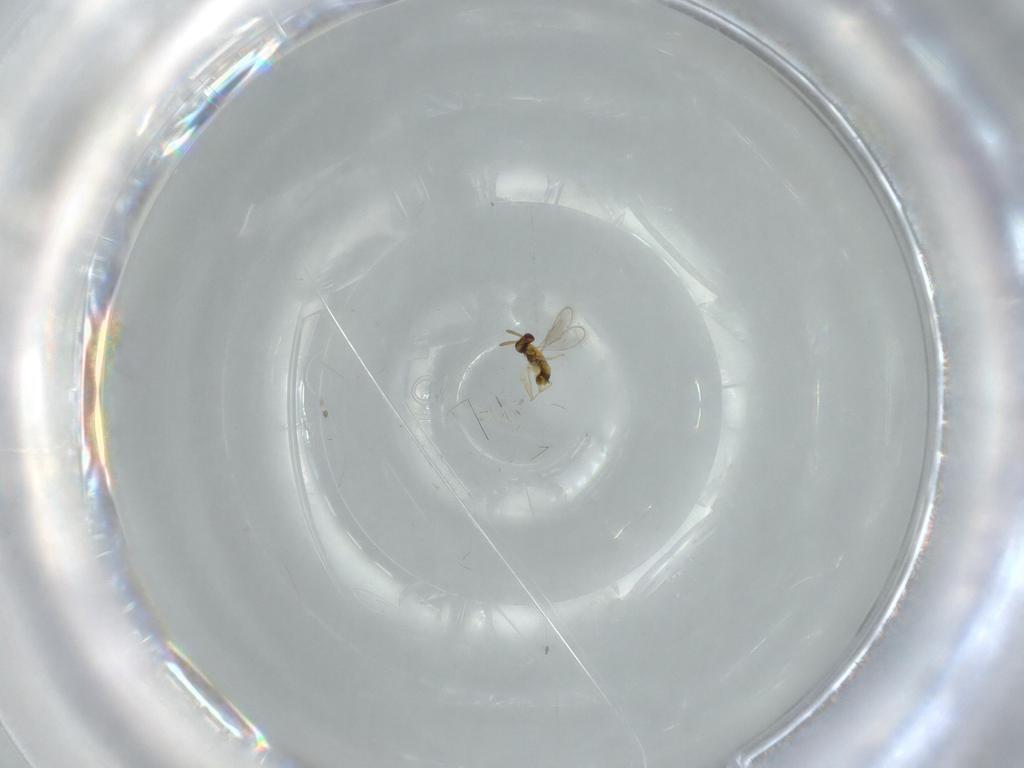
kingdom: Animalia
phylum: Arthropoda
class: Insecta
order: Hymenoptera
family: Aphelinidae
